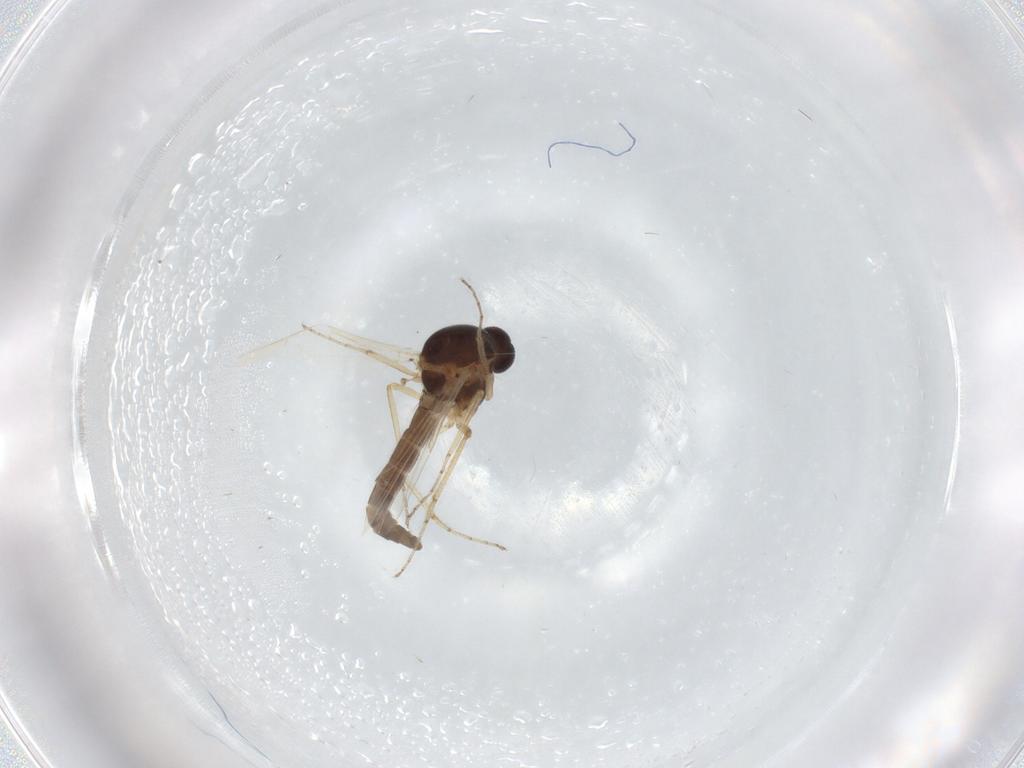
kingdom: Animalia
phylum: Arthropoda
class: Insecta
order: Diptera
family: Ceratopogonidae
